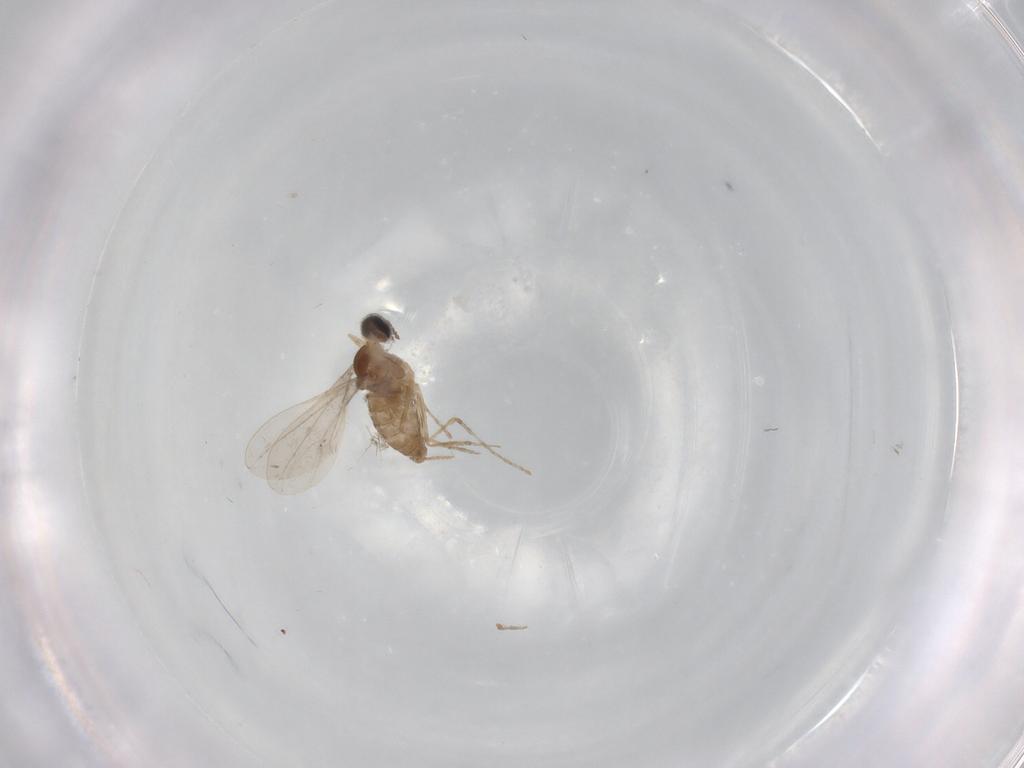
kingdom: Animalia
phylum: Arthropoda
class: Insecta
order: Diptera
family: Cecidomyiidae
